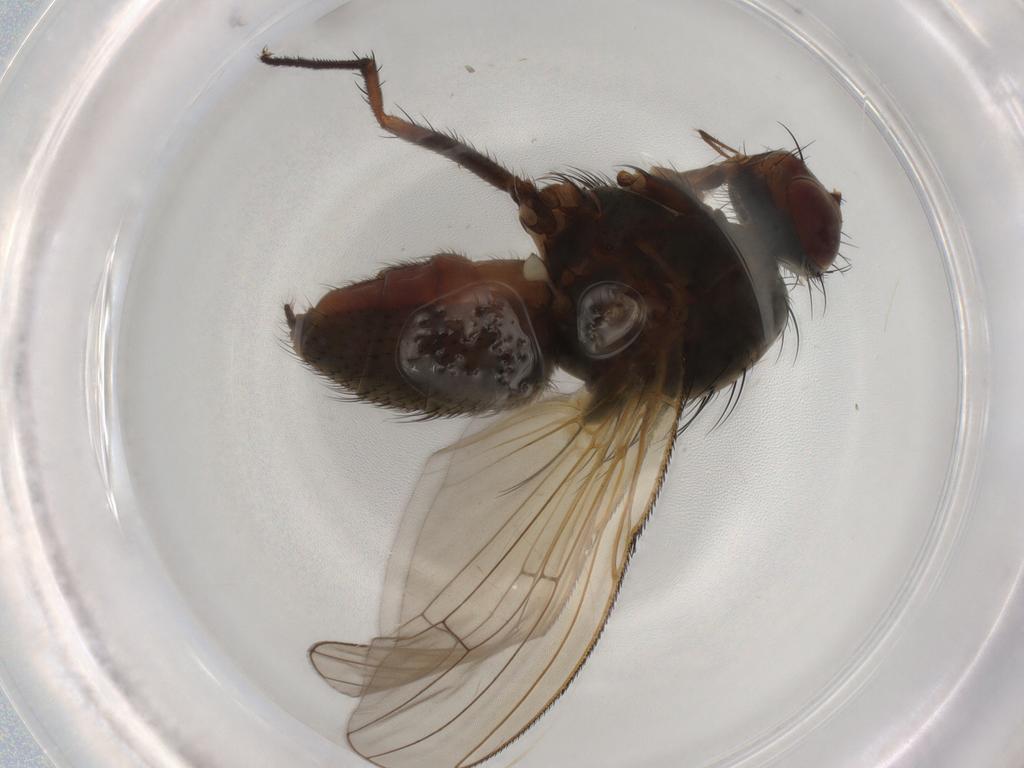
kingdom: Animalia
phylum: Arthropoda
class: Insecta
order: Diptera
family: Anthomyiidae
